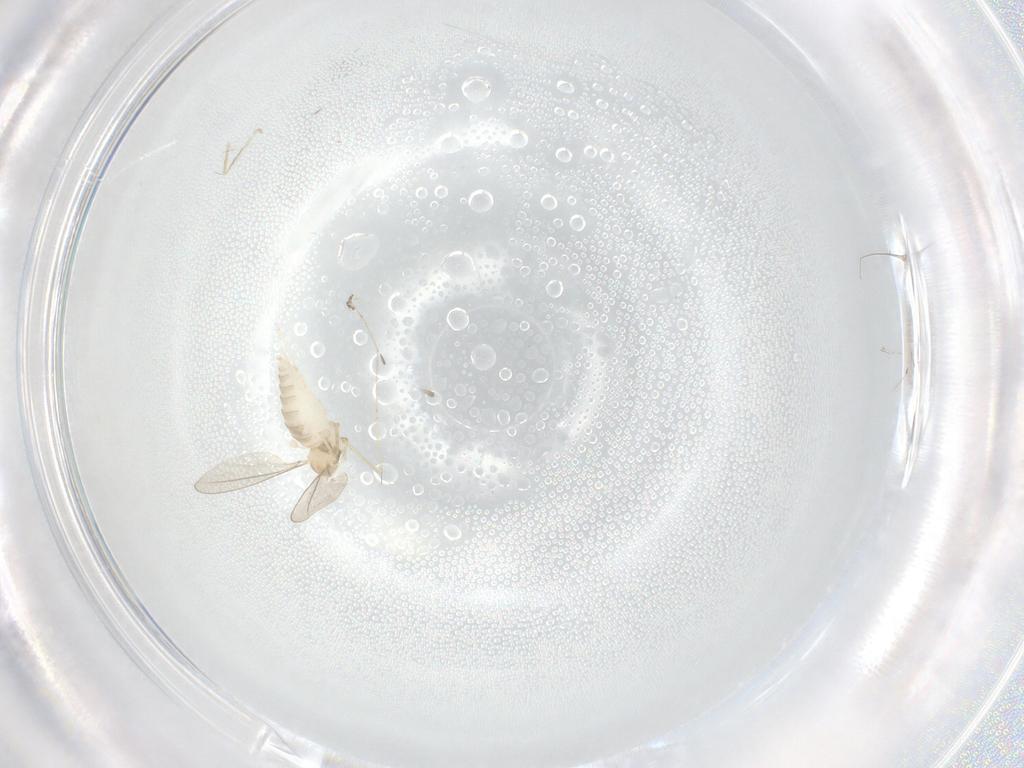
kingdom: Animalia
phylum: Arthropoda
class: Insecta
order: Diptera
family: Cecidomyiidae
